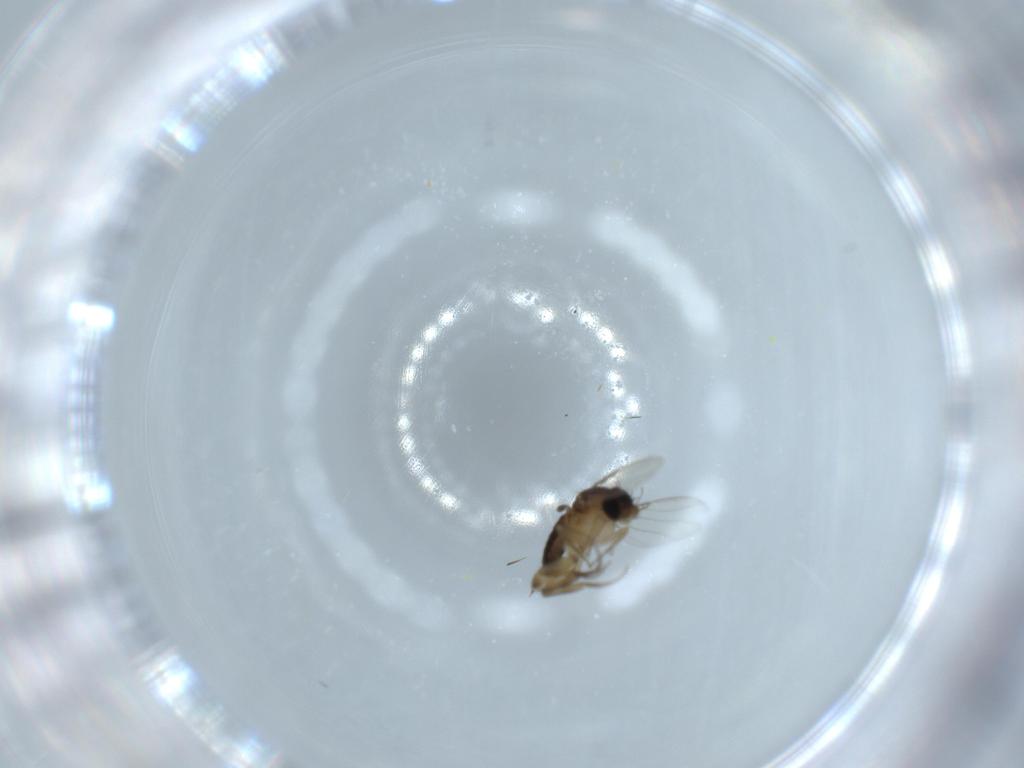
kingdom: Animalia
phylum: Arthropoda
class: Insecta
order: Diptera
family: Phoridae
